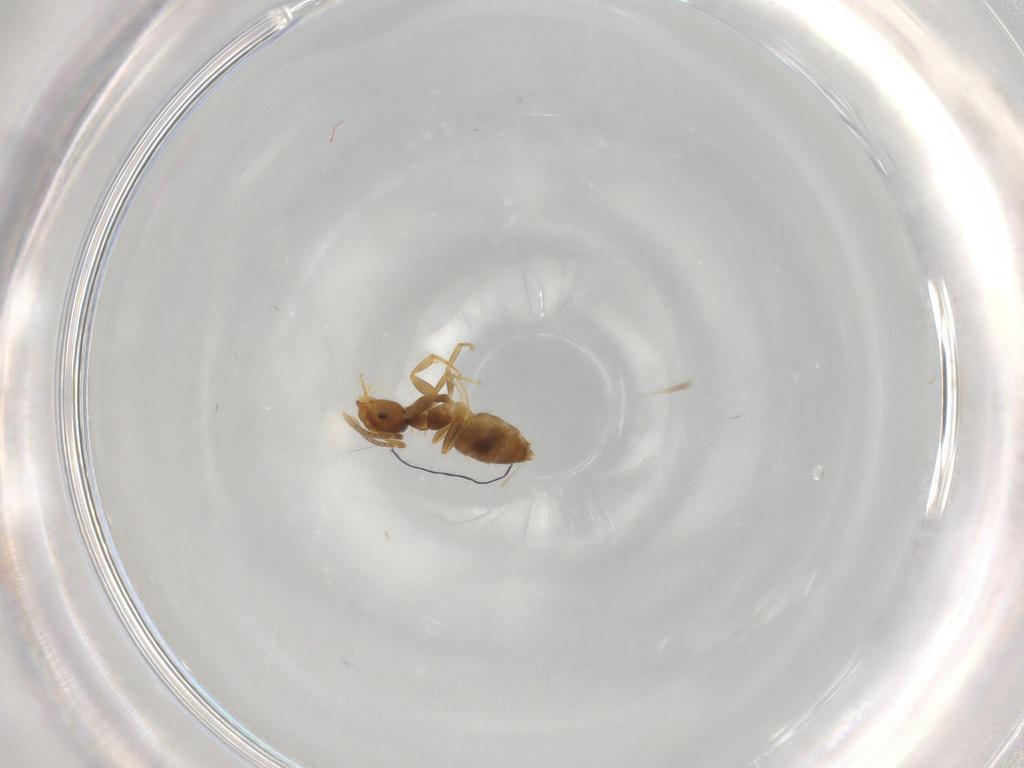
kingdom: Animalia
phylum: Arthropoda
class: Insecta
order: Hymenoptera
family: Formicidae
